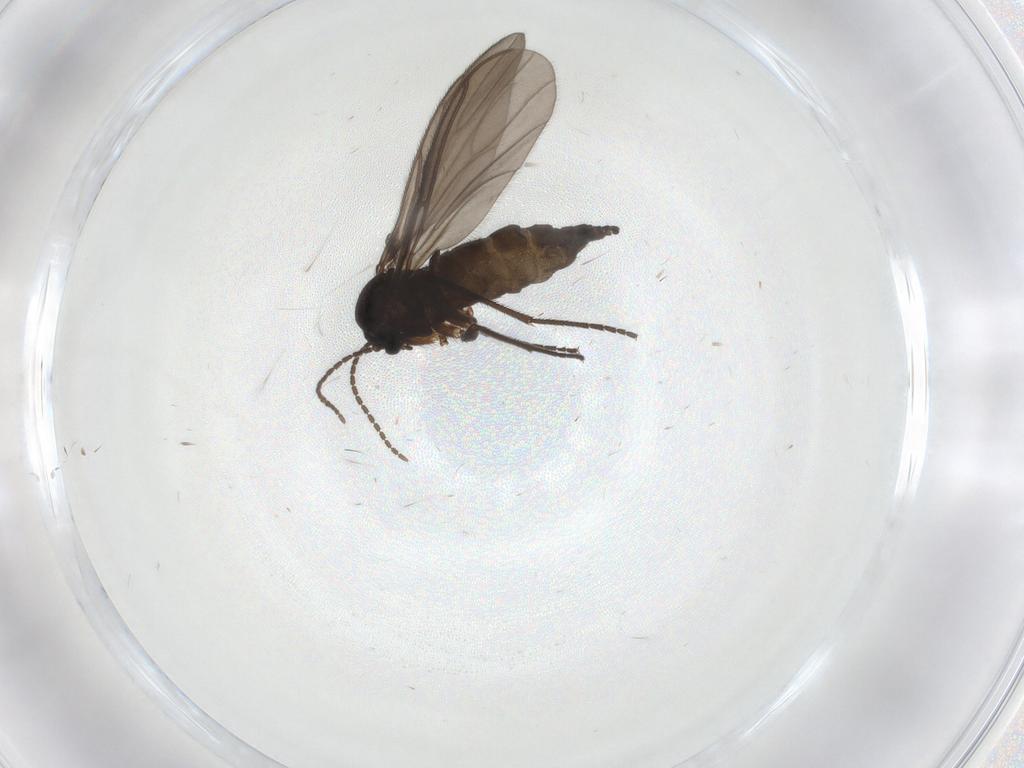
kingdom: Animalia
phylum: Arthropoda
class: Insecta
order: Diptera
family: Sciaridae
